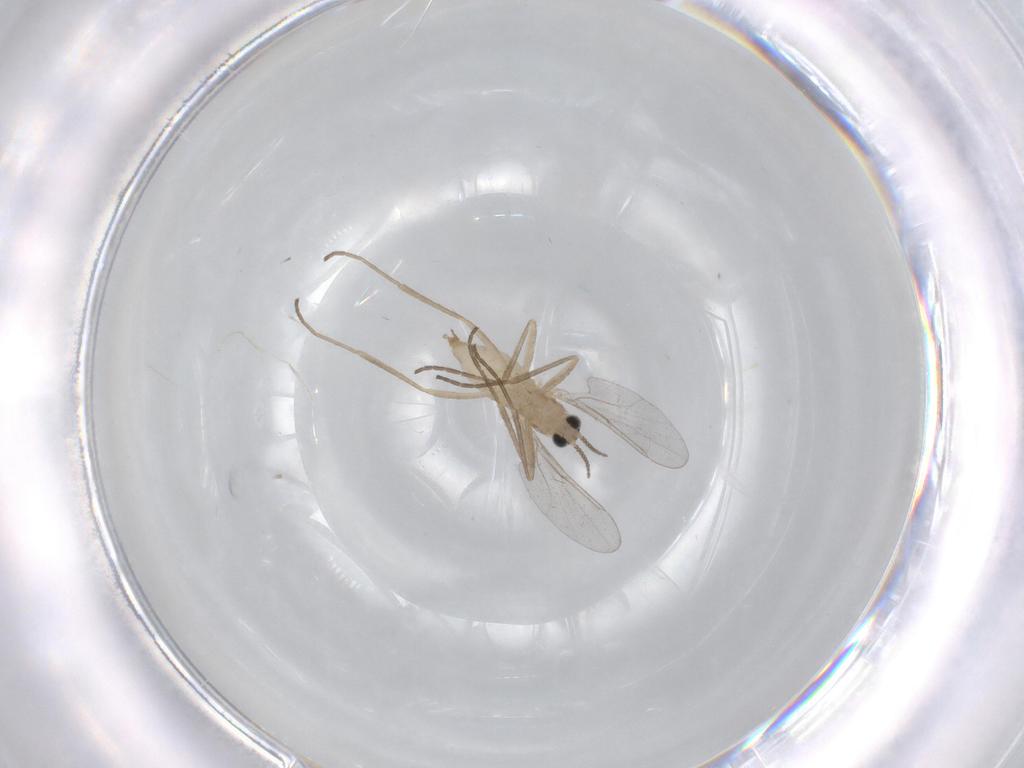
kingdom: Animalia
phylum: Arthropoda
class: Insecta
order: Diptera
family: Cecidomyiidae
